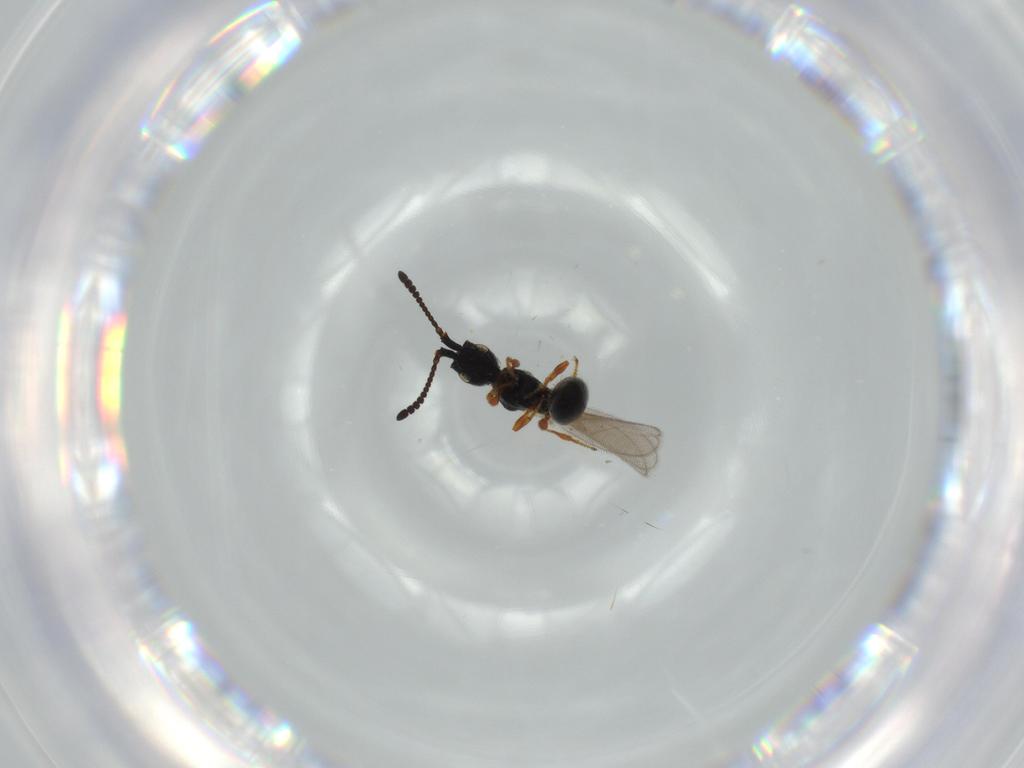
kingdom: Animalia
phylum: Arthropoda
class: Insecta
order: Hymenoptera
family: Diapriidae
